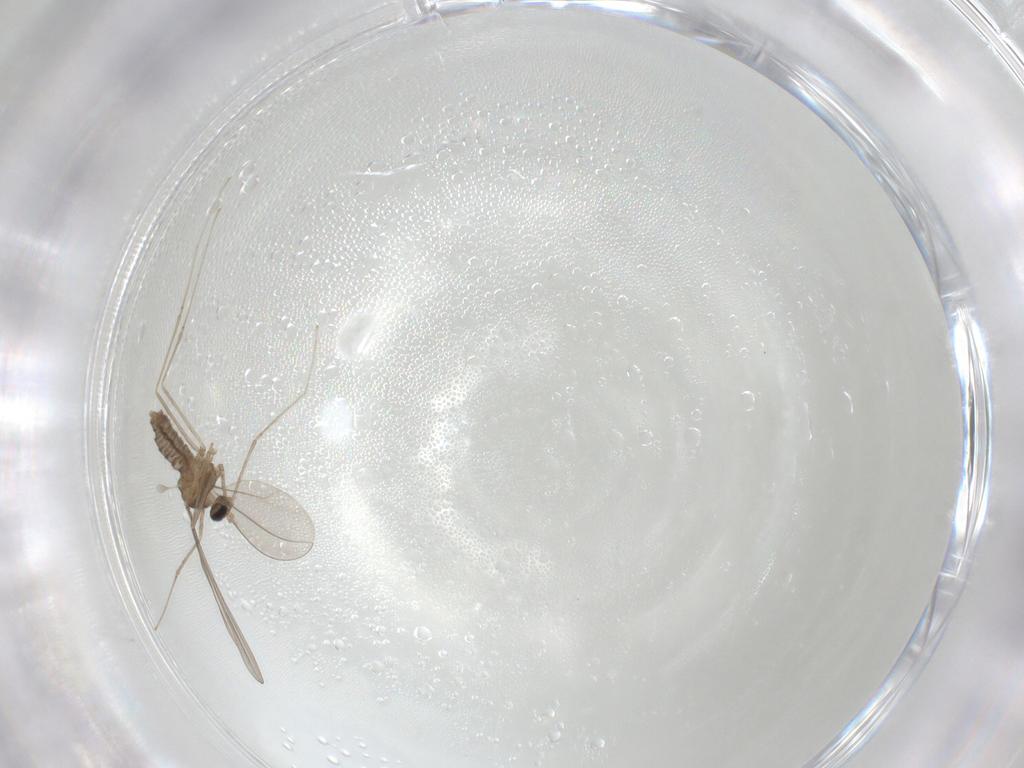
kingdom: Animalia
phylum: Arthropoda
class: Insecta
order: Diptera
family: Cecidomyiidae
